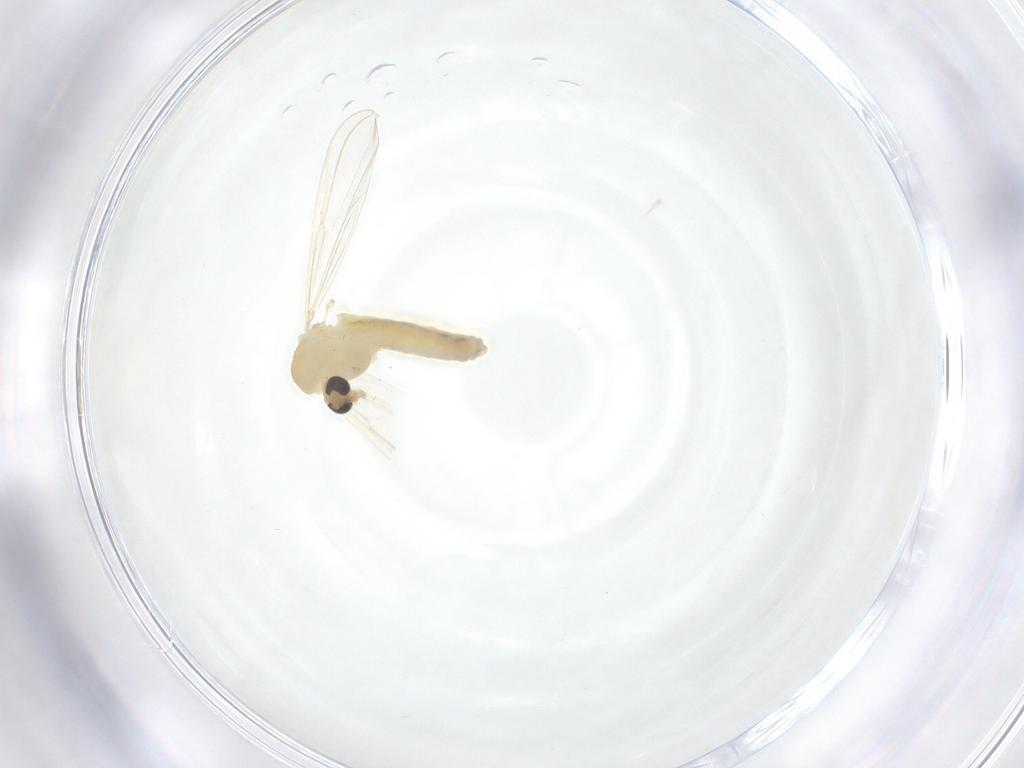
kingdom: Animalia
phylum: Arthropoda
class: Insecta
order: Diptera
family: Chironomidae
